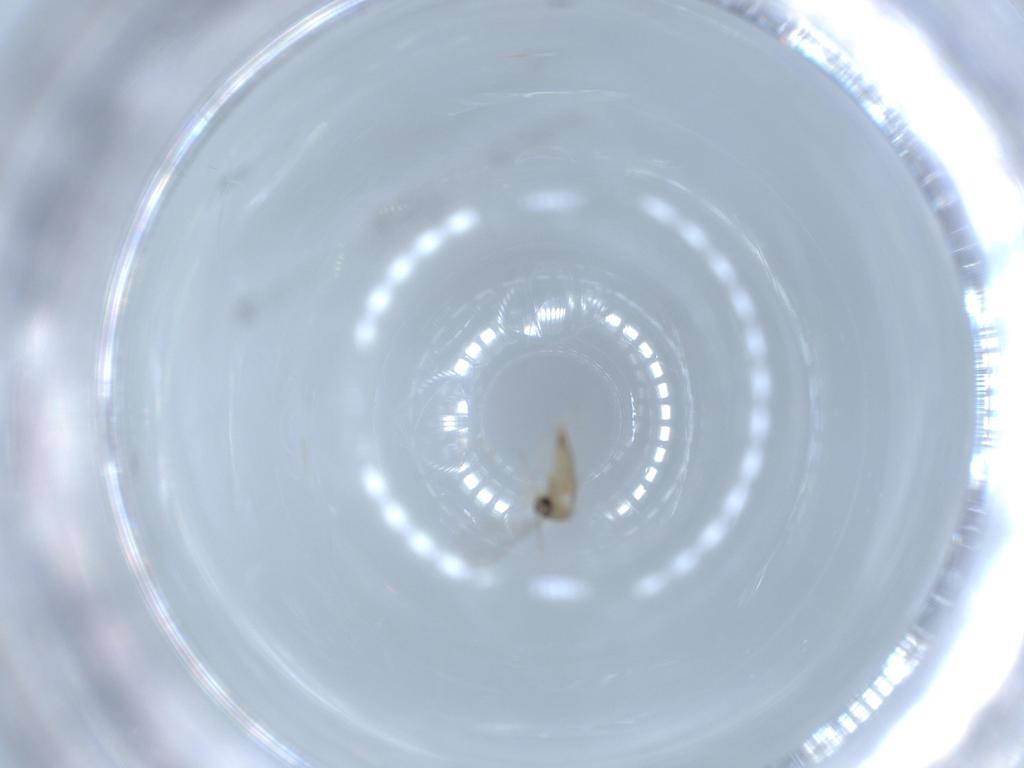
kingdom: Animalia
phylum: Arthropoda
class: Insecta
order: Diptera
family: Cecidomyiidae
